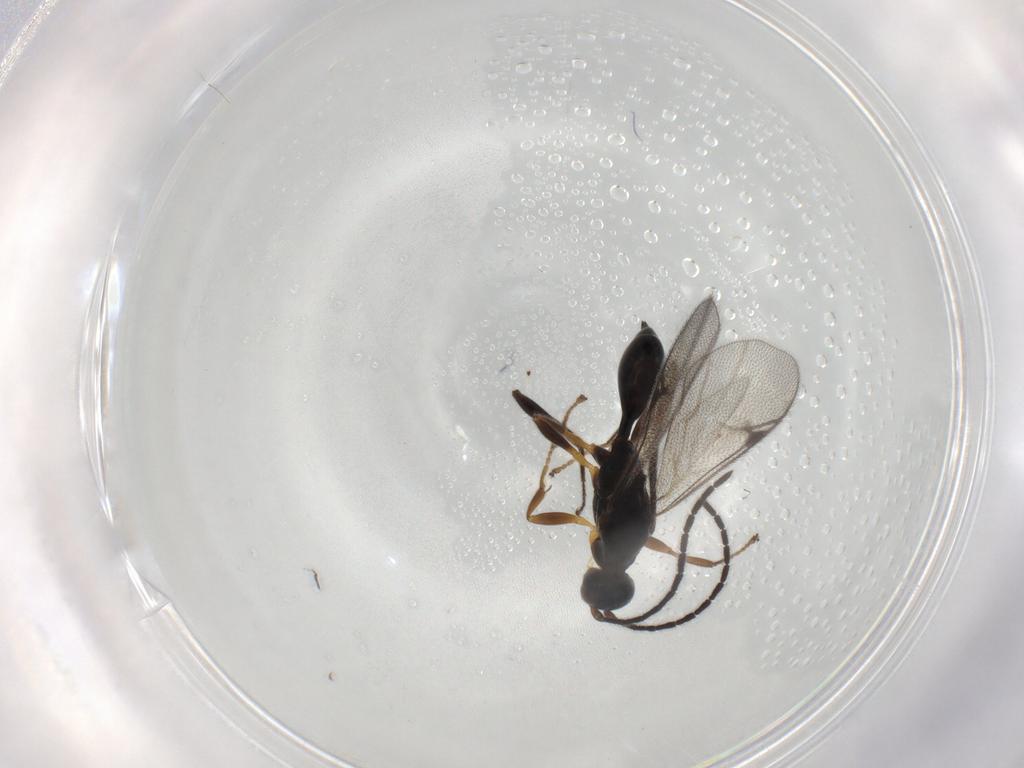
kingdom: Animalia
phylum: Arthropoda
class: Insecta
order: Hymenoptera
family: Proctotrupidae
